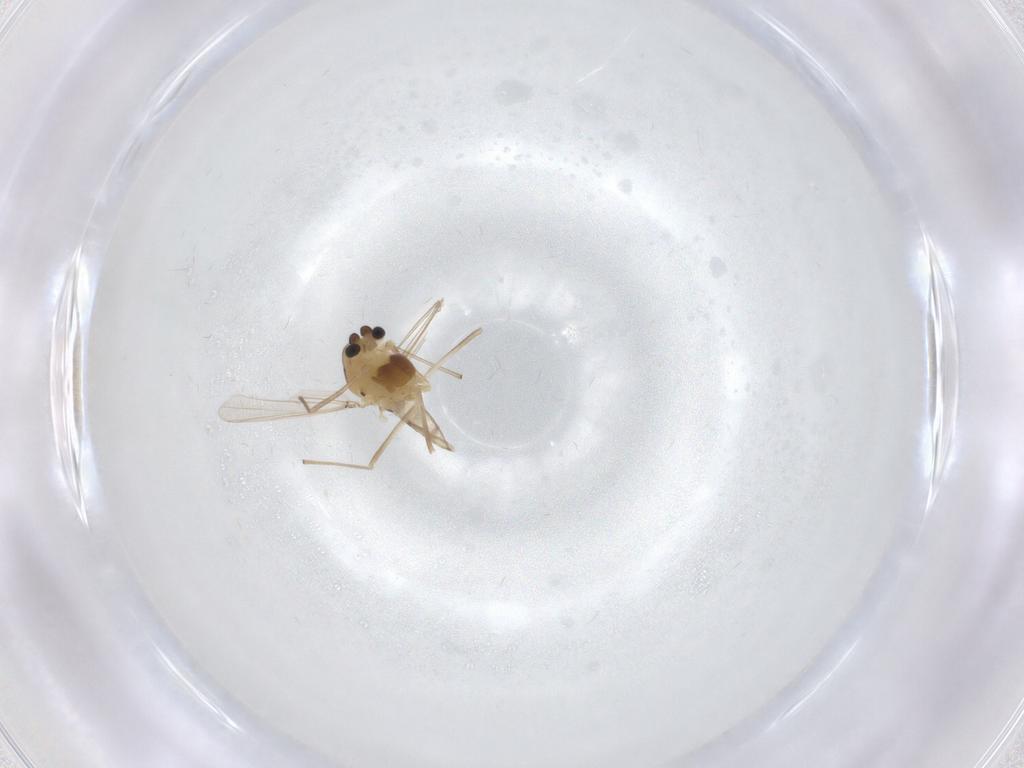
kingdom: Animalia
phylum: Arthropoda
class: Insecta
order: Diptera
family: Chironomidae
